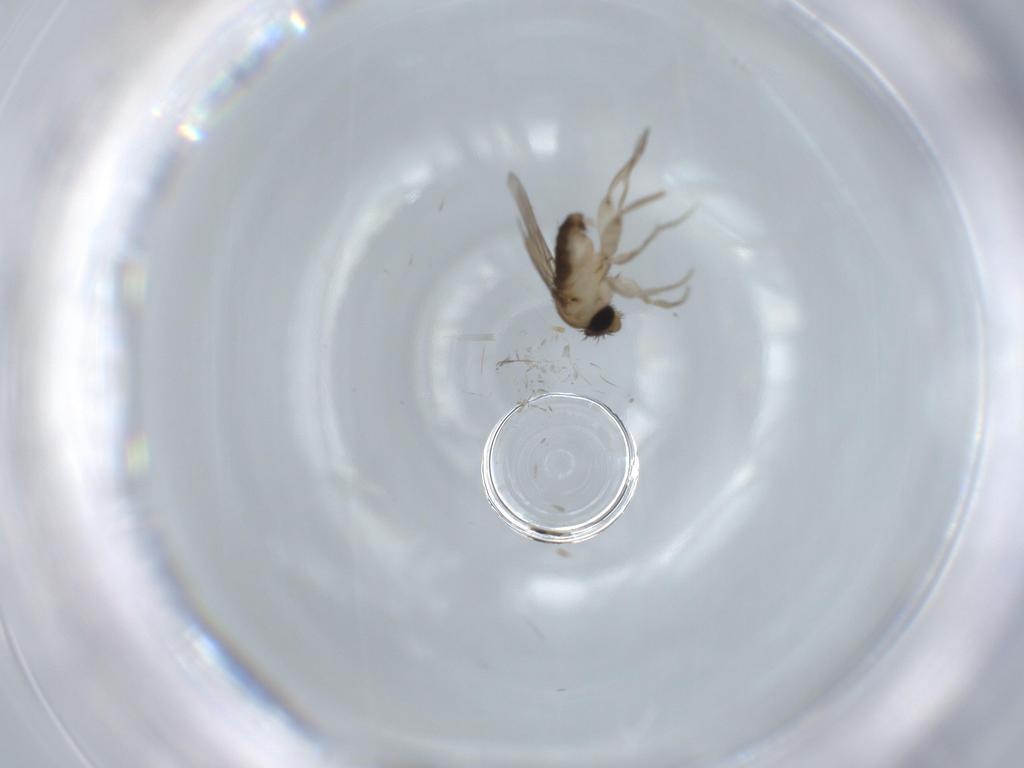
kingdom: Animalia
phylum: Arthropoda
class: Insecta
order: Diptera
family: Phoridae
